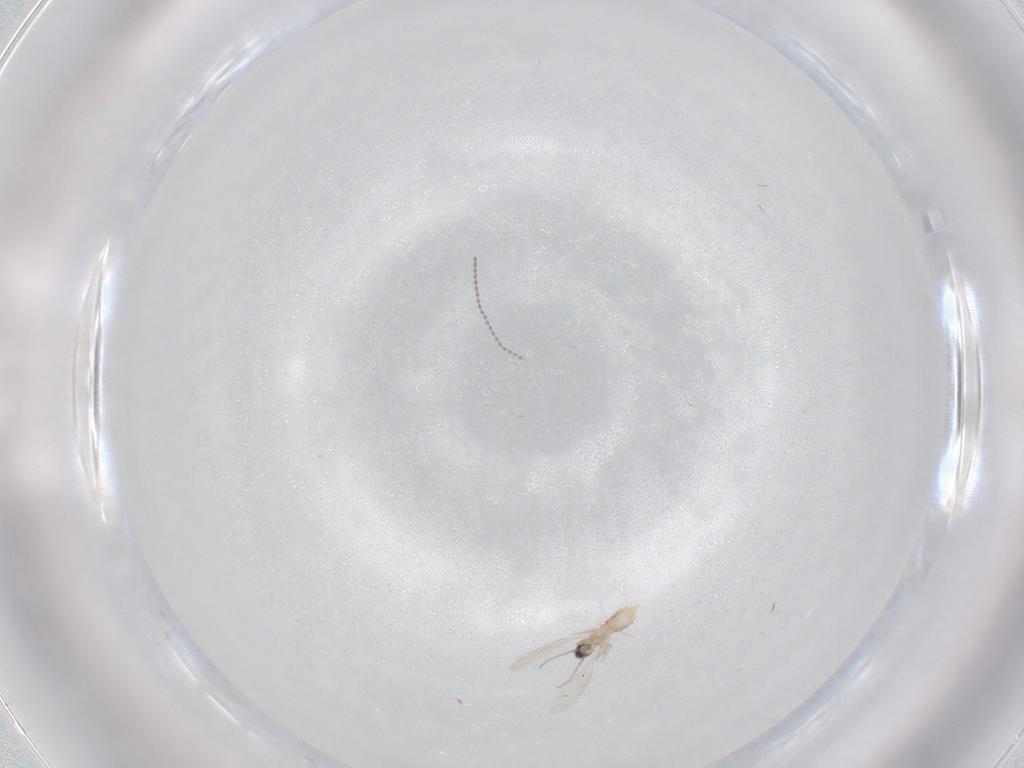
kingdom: Animalia
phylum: Arthropoda
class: Insecta
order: Diptera
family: Cecidomyiidae
